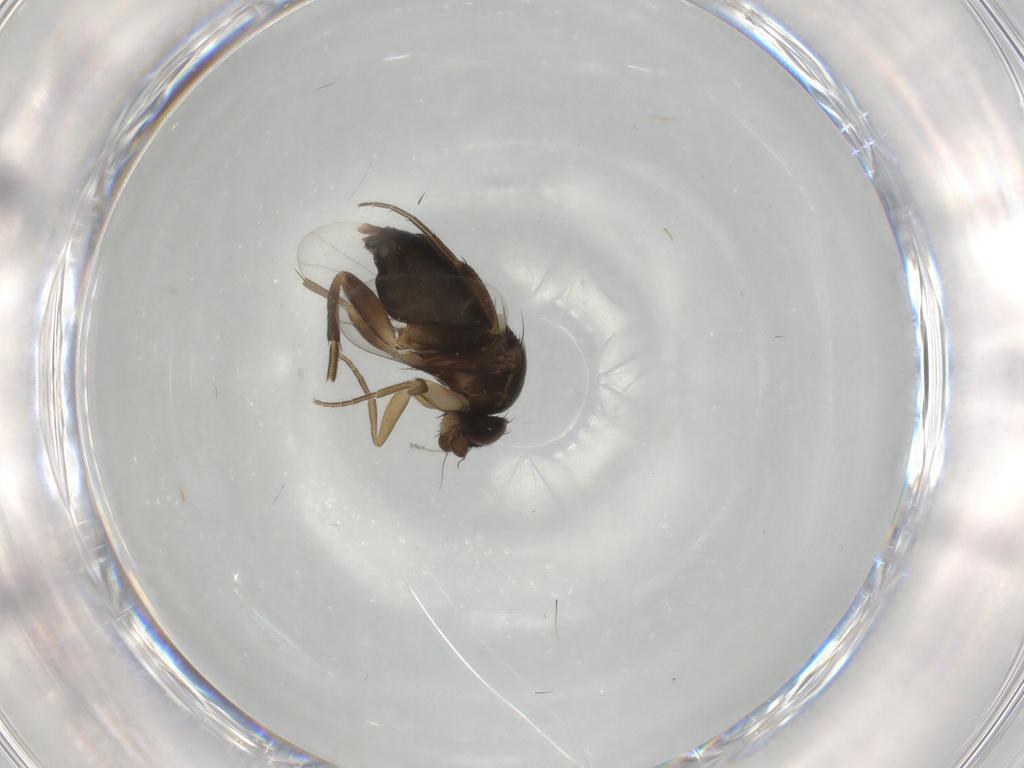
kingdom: Animalia
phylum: Arthropoda
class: Insecta
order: Diptera
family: Phoridae
